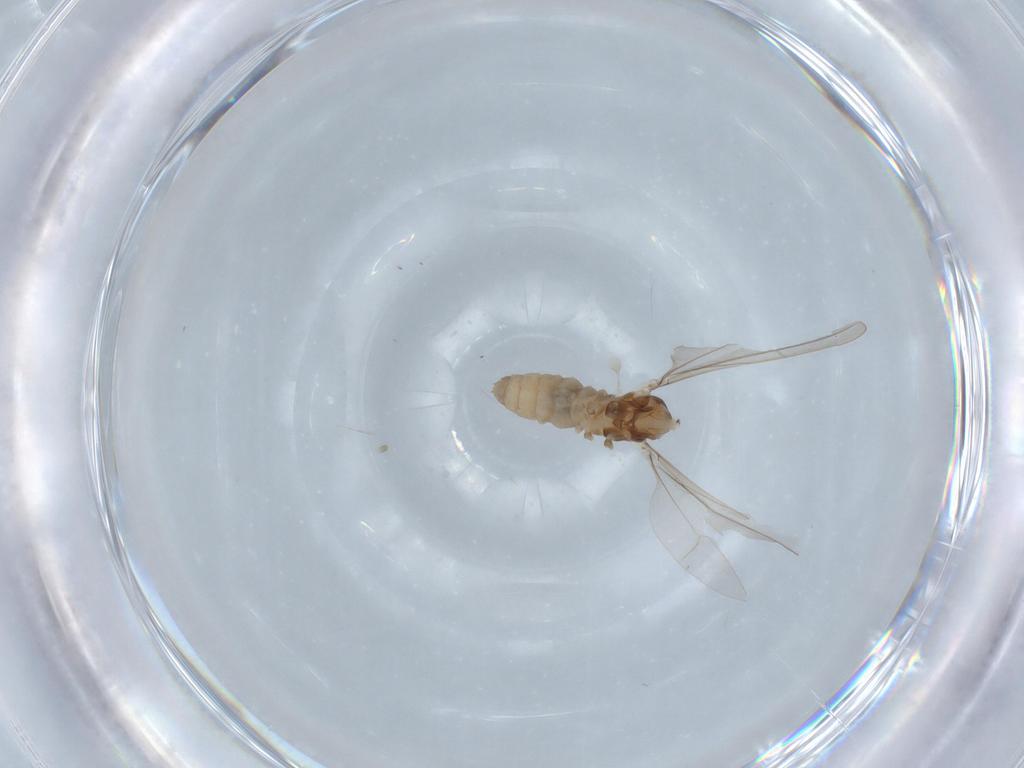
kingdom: Animalia
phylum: Arthropoda
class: Insecta
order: Diptera
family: Cecidomyiidae
